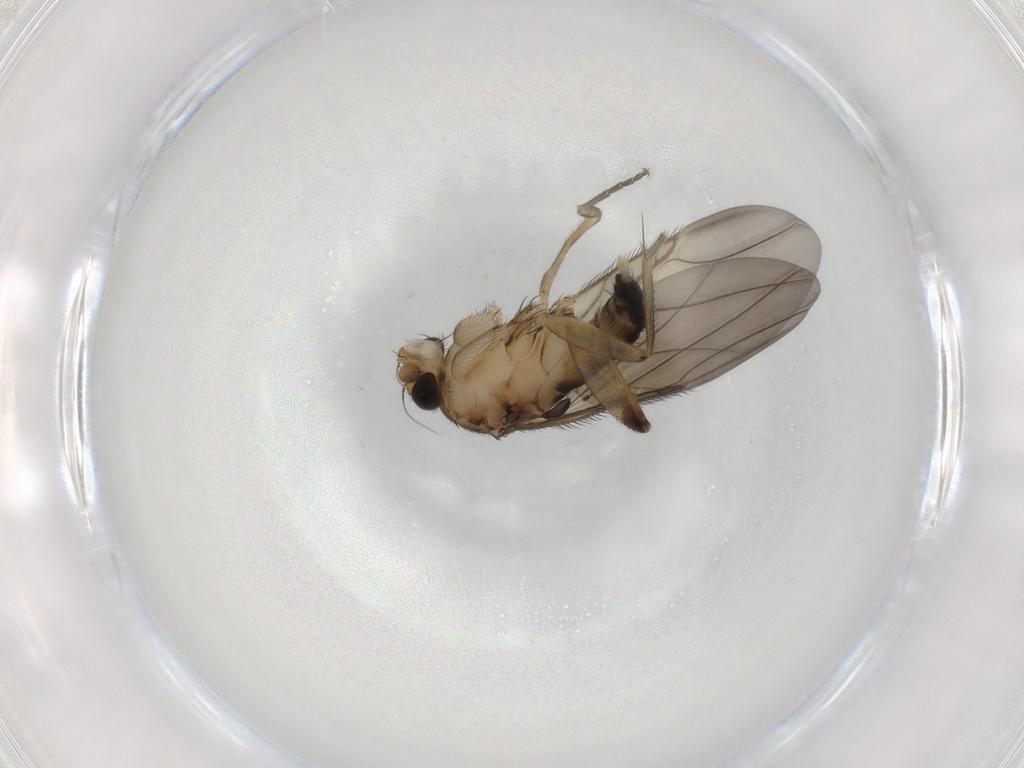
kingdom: Animalia
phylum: Arthropoda
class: Insecta
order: Diptera
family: Phoridae
